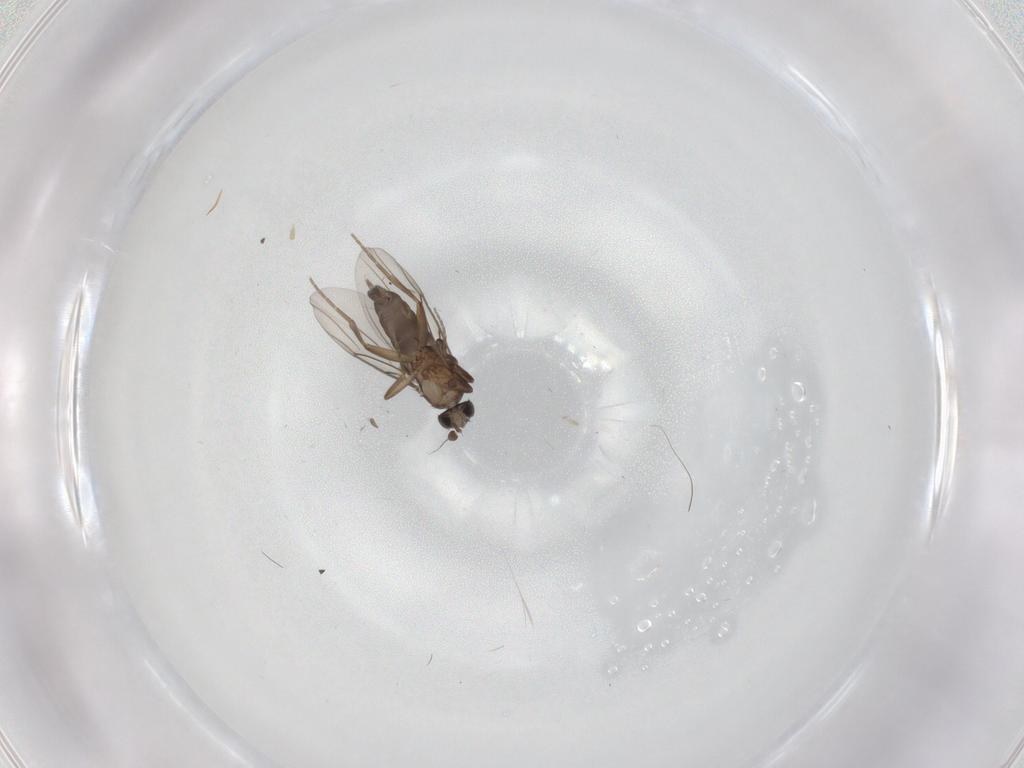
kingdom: Animalia
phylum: Arthropoda
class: Insecta
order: Diptera
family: Phoridae
